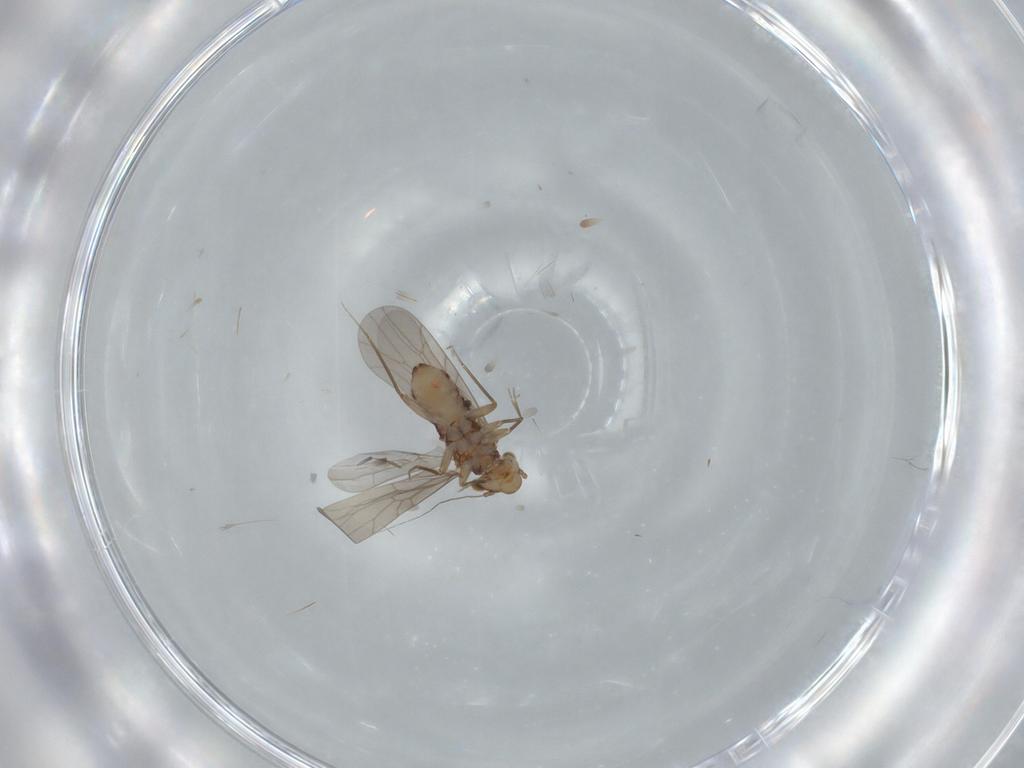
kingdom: Animalia
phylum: Arthropoda
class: Insecta
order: Psocodea
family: Lepidopsocidae
